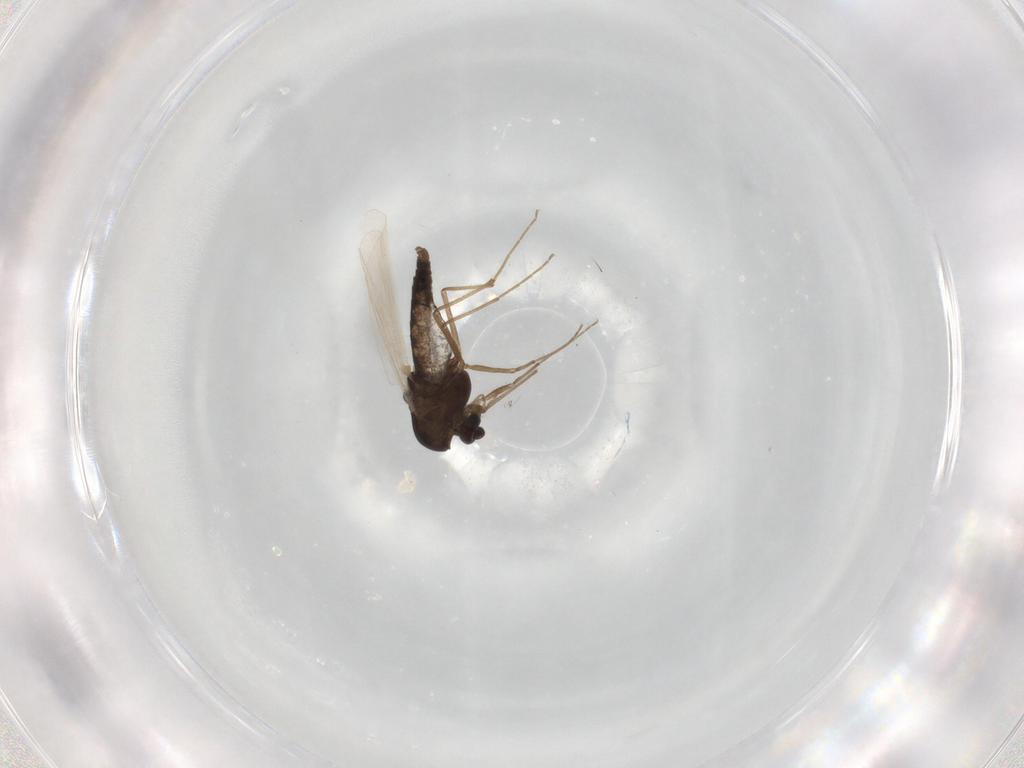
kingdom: Animalia
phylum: Arthropoda
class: Insecta
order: Diptera
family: Chironomidae
